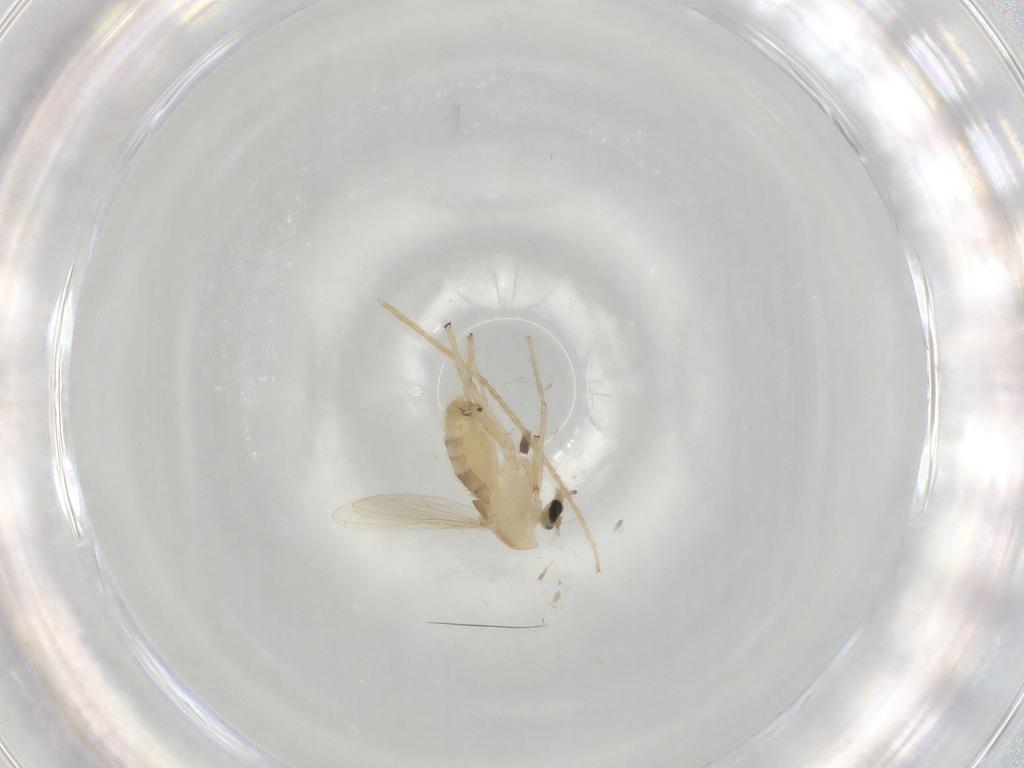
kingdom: Animalia
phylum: Arthropoda
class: Insecta
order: Diptera
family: Chironomidae
